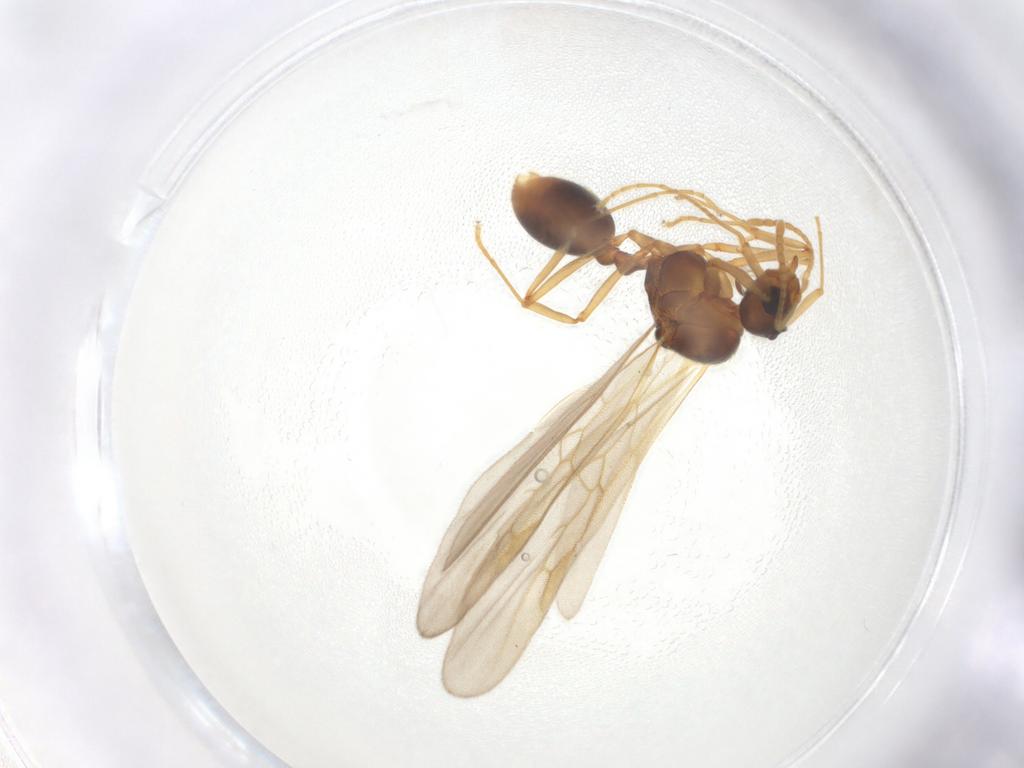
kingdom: Animalia
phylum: Arthropoda
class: Insecta
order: Hymenoptera
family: Formicidae
